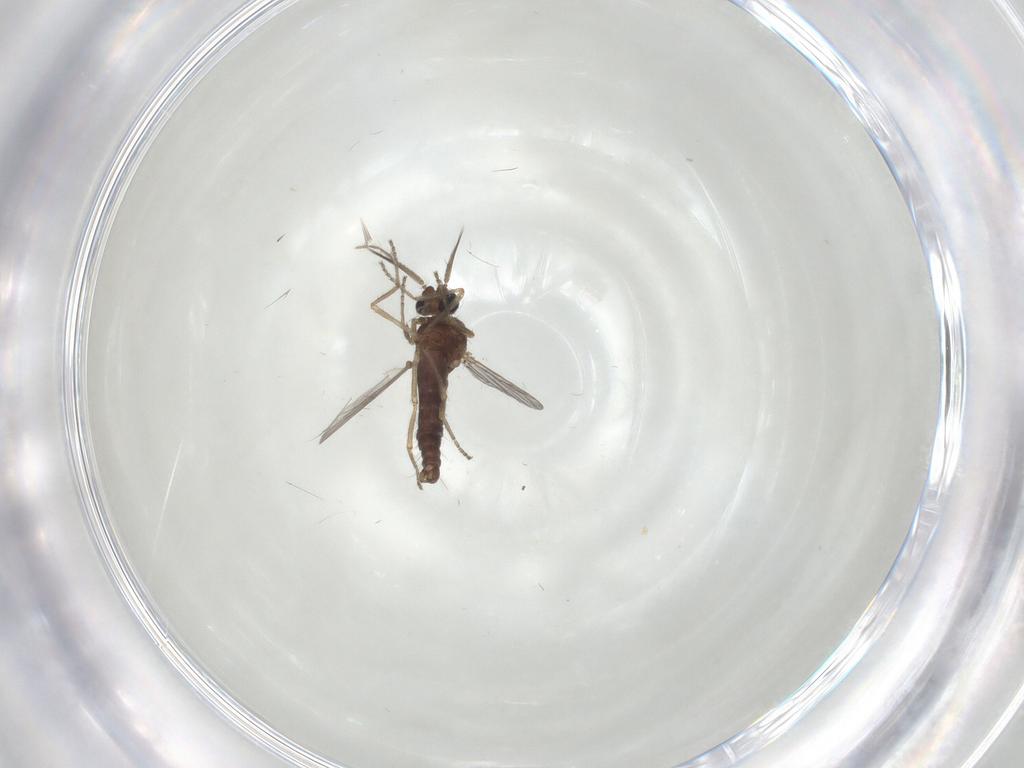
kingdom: Animalia
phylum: Arthropoda
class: Insecta
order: Diptera
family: Ceratopogonidae
